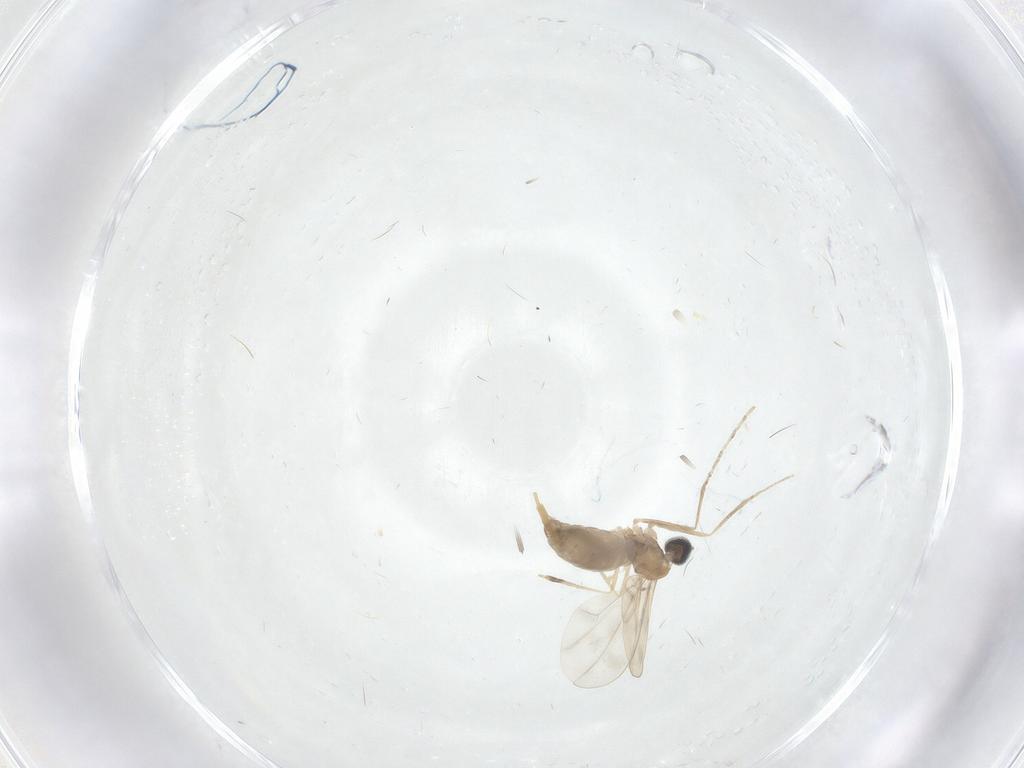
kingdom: Animalia
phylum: Arthropoda
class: Insecta
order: Diptera
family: Cecidomyiidae
